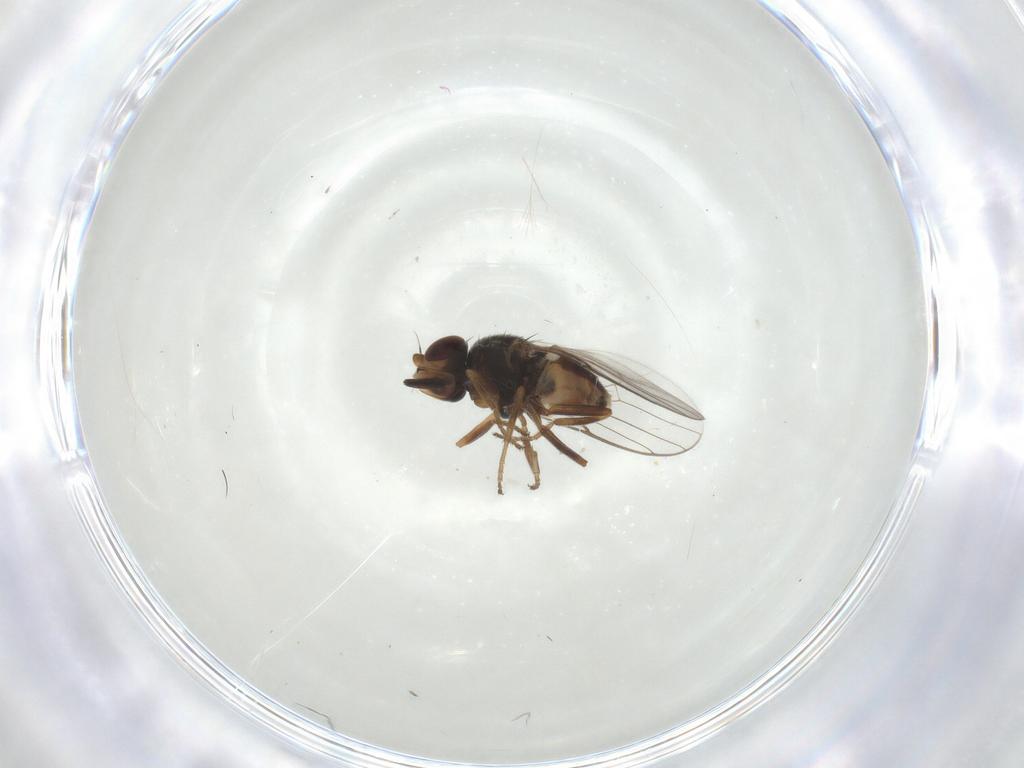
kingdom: Animalia
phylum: Arthropoda
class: Insecta
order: Diptera
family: Chloropidae
